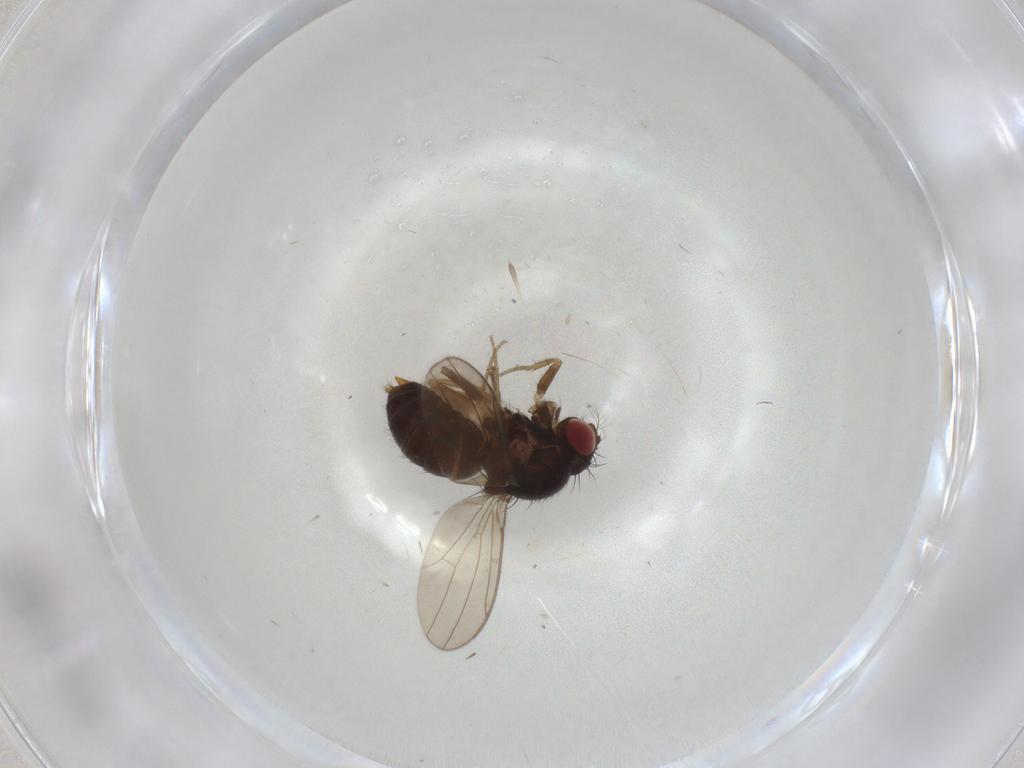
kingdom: Animalia
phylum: Arthropoda
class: Insecta
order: Diptera
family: Drosophilidae
